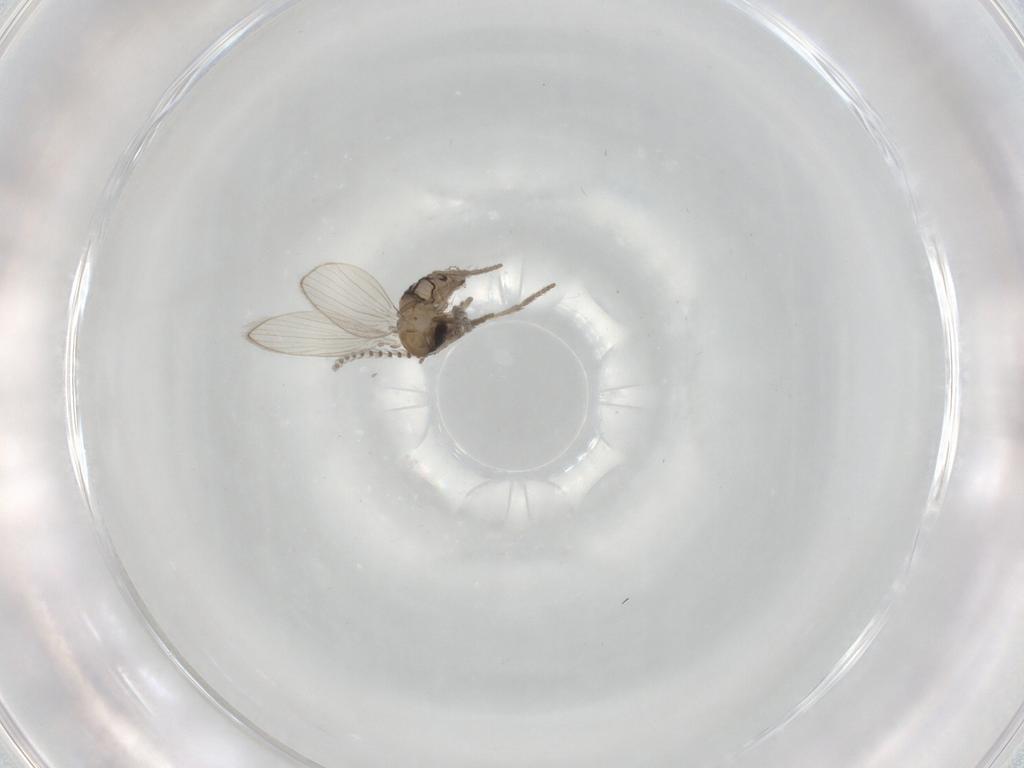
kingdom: Animalia
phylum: Arthropoda
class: Insecta
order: Diptera
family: Psychodidae
